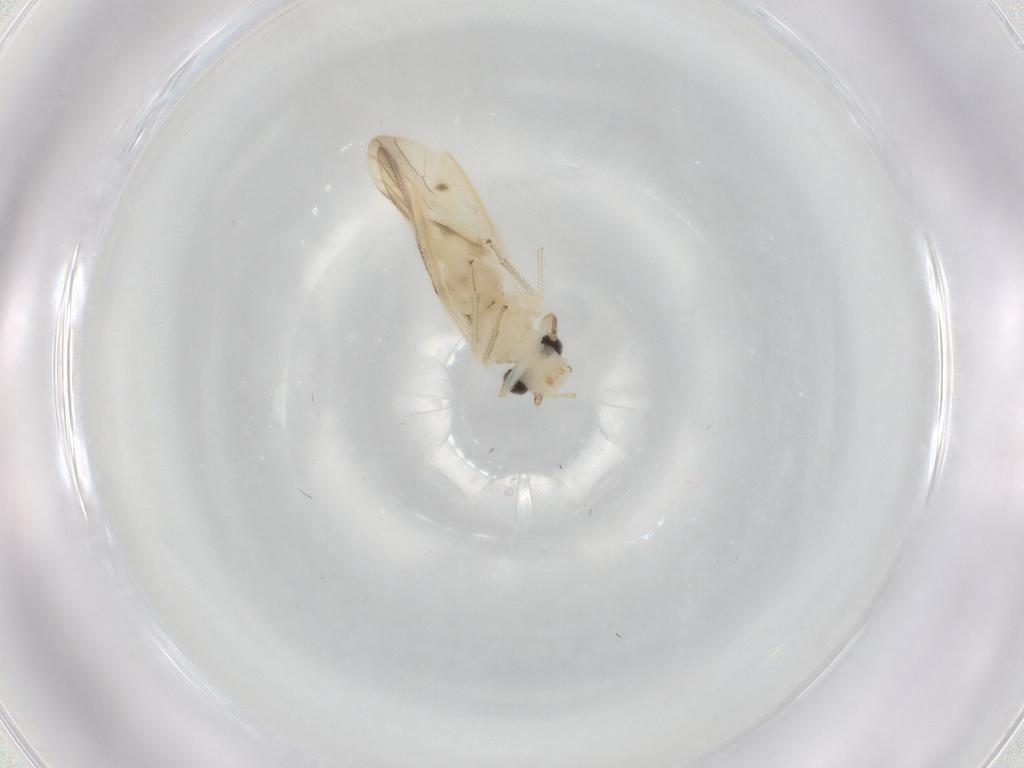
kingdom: Animalia
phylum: Arthropoda
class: Insecta
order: Psocodea
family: Caeciliusidae
